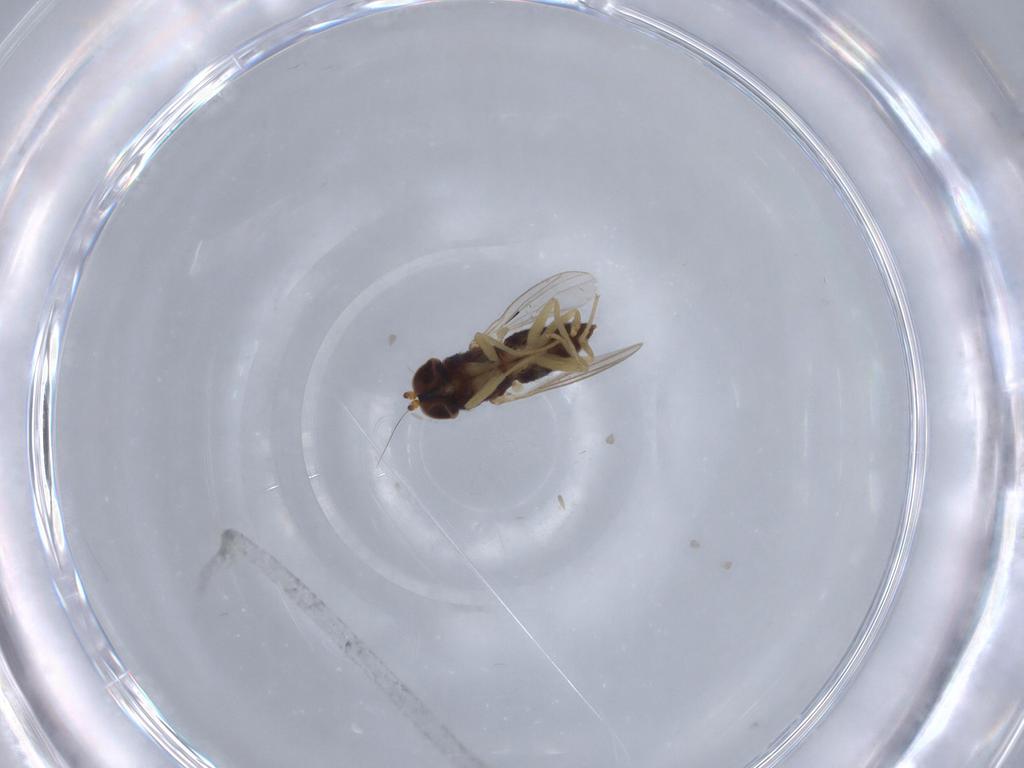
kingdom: Animalia
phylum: Arthropoda
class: Insecta
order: Diptera
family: Dolichopodidae
